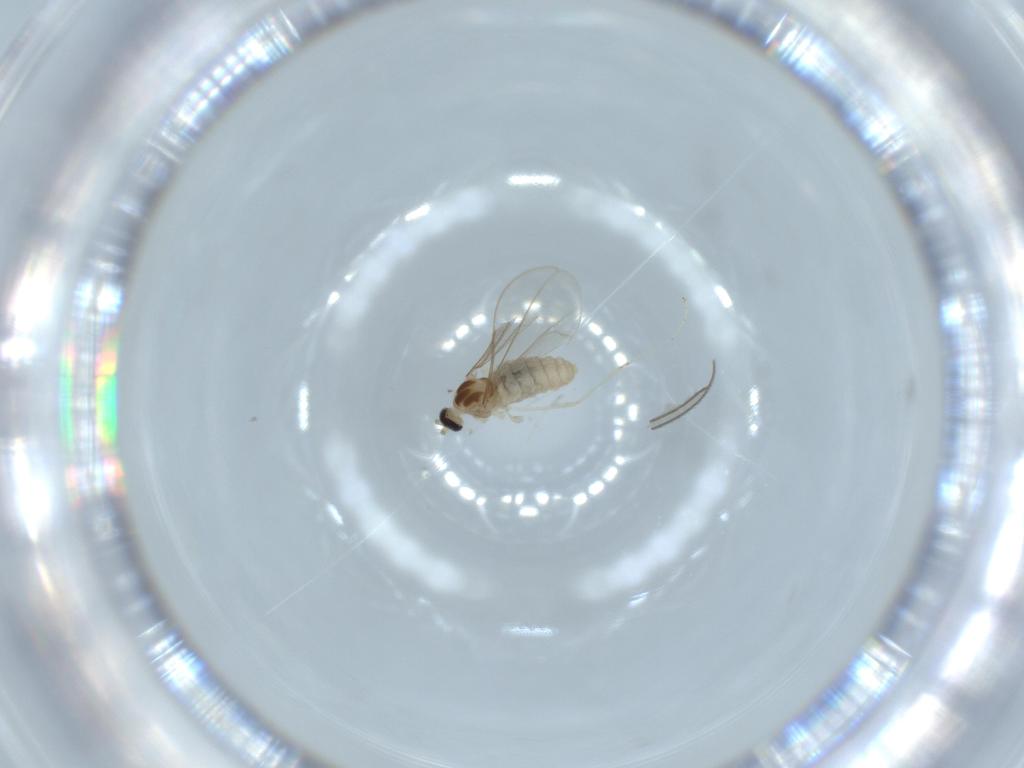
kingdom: Animalia
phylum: Arthropoda
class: Insecta
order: Diptera
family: Cecidomyiidae
